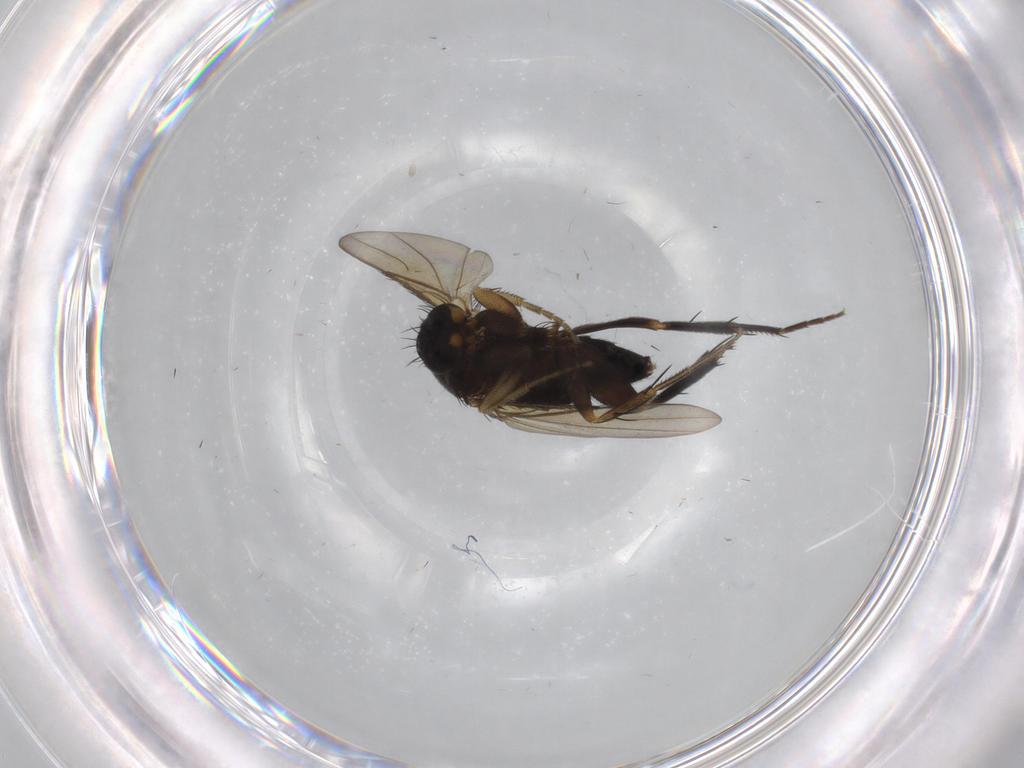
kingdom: Animalia
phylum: Arthropoda
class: Insecta
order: Diptera
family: Phoridae
